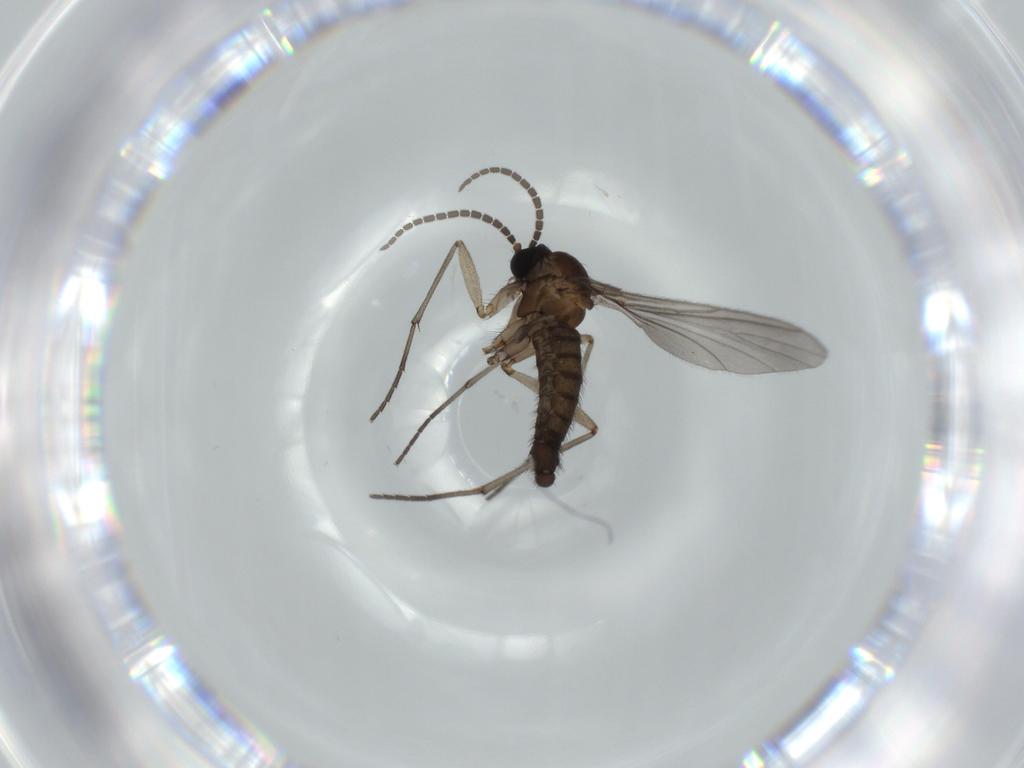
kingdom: Animalia
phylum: Arthropoda
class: Insecta
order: Diptera
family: Sciaridae
